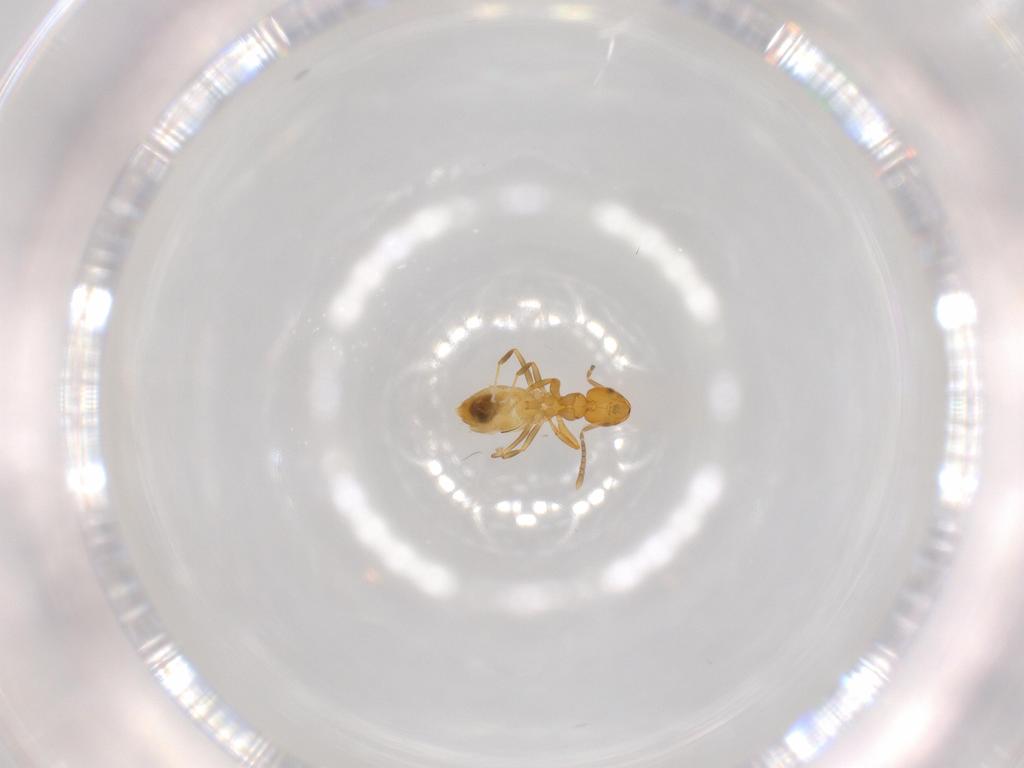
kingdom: Animalia
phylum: Arthropoda
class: Insecta
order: Hymenoptera
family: Formicidae
